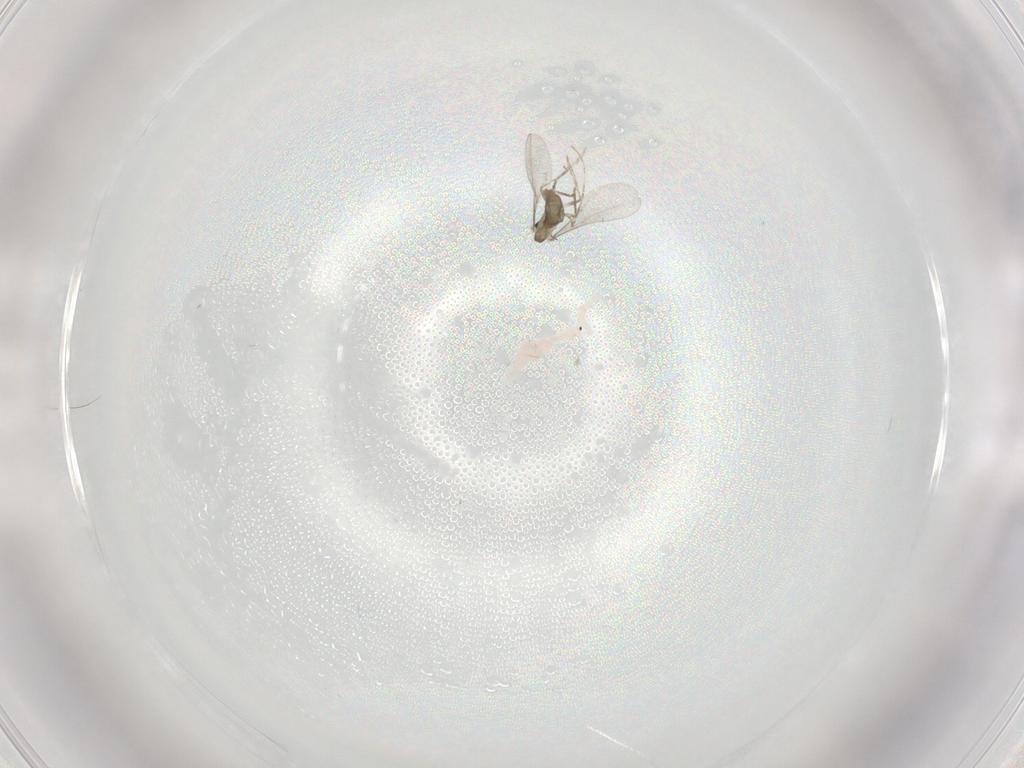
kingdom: Animalia
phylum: Arthropoda
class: Insecta
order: Diptera
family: Cecidomyiidae
